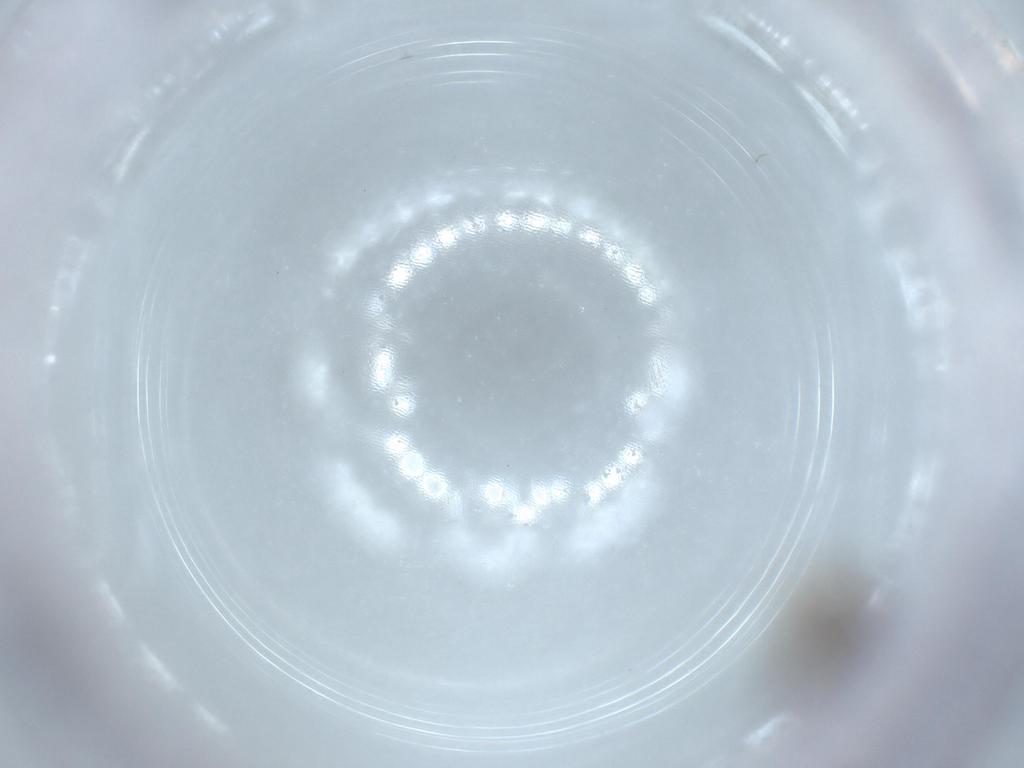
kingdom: Animalia
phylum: Arthropoda
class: Insecta
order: Coleoptera
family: Corylophidae
